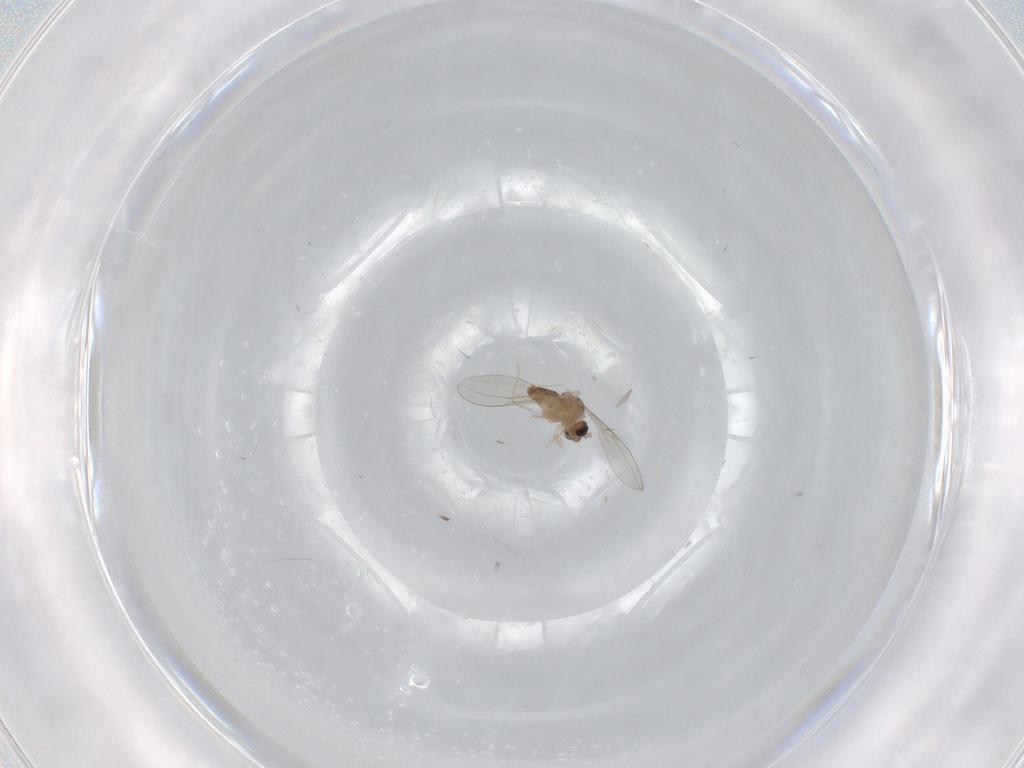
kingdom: Animalia
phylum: Arthropoda
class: Insecta
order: Diptera
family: Cecidomyiidae
